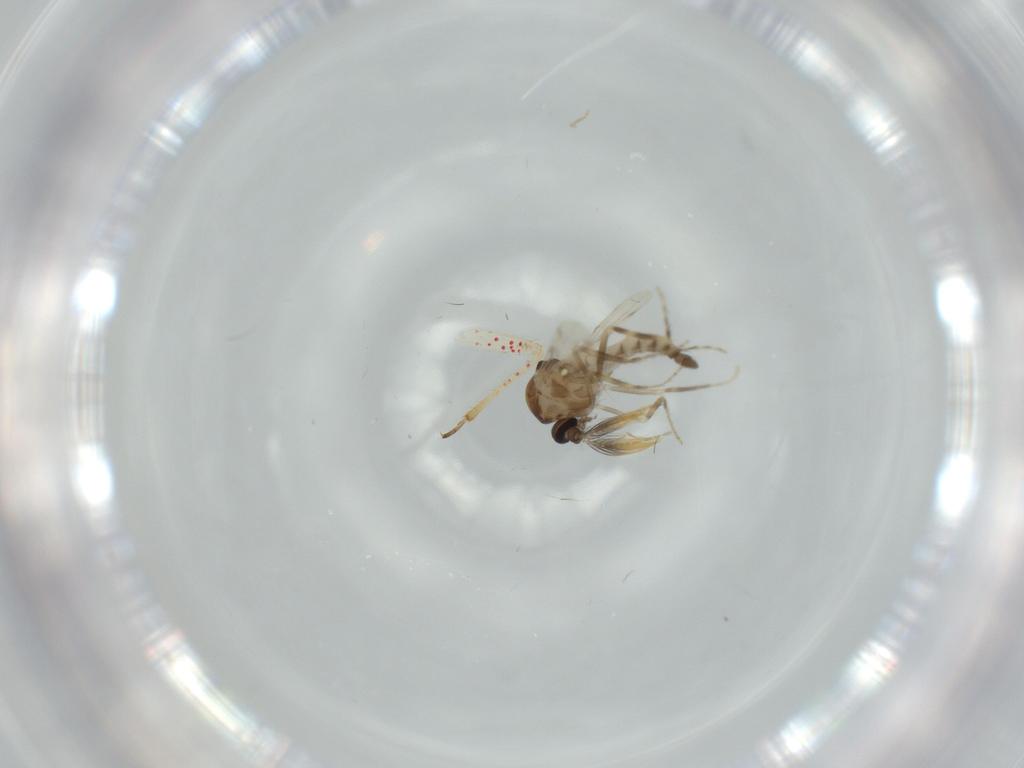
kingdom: Animalia
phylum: Arthropoda
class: Insecta
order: Diptera
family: Ceratopogonidae
